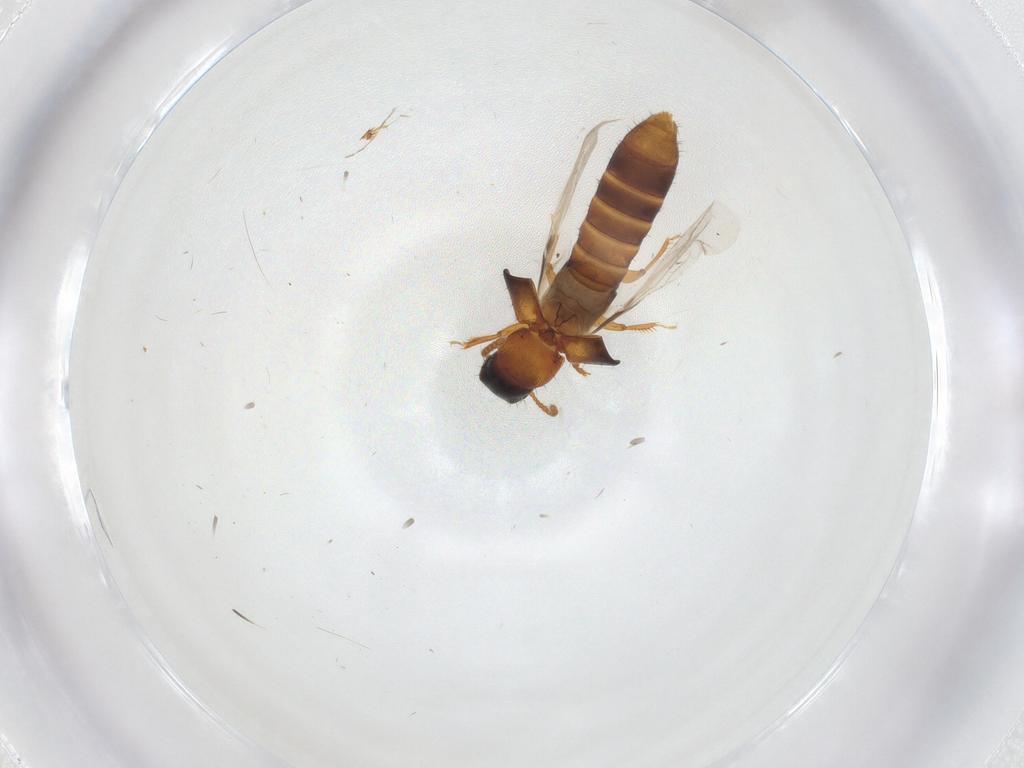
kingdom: Animalia
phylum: Arthropoda
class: Insecta
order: Coleoptera
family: Staphylinidae
